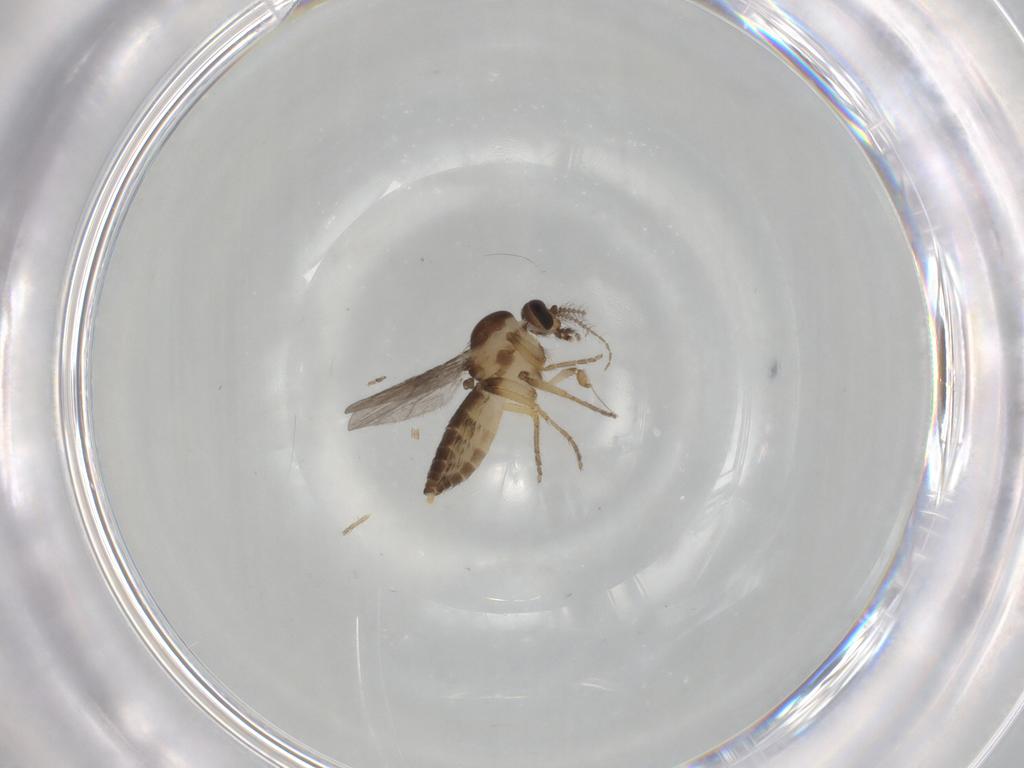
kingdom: Animalia
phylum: Arthropoda
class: Insecta
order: Diptera
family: Ceratopogonidae
